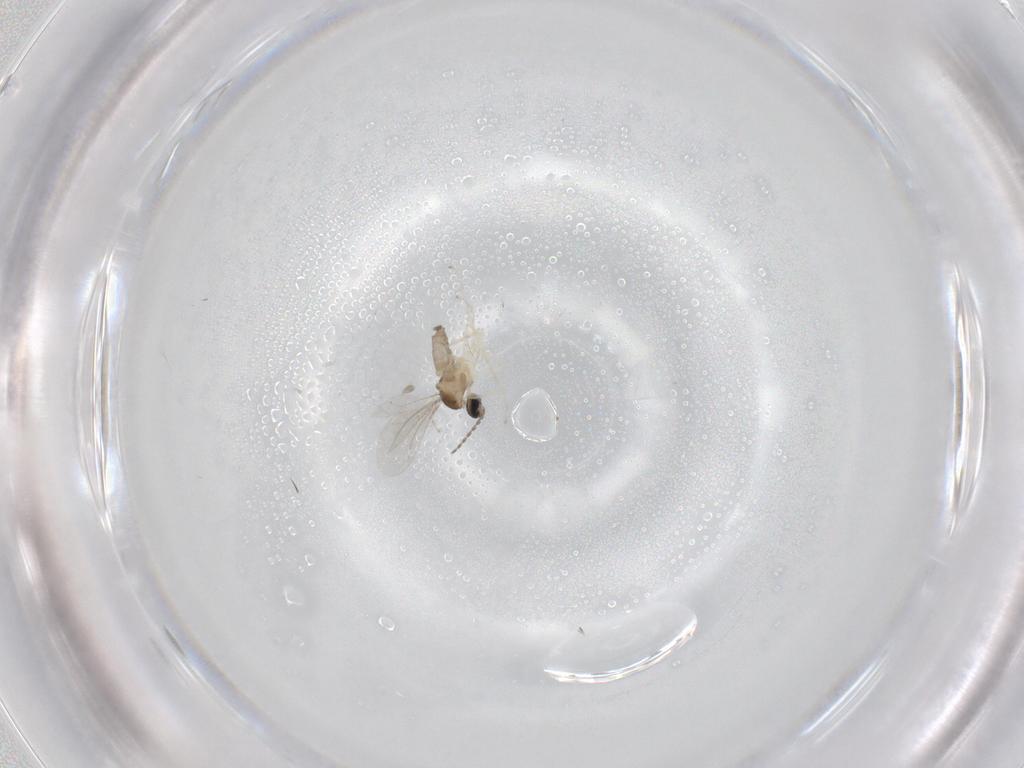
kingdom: Animalia
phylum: Arthropoda
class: Insecta
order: Diptera
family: Cecidomyiidae
